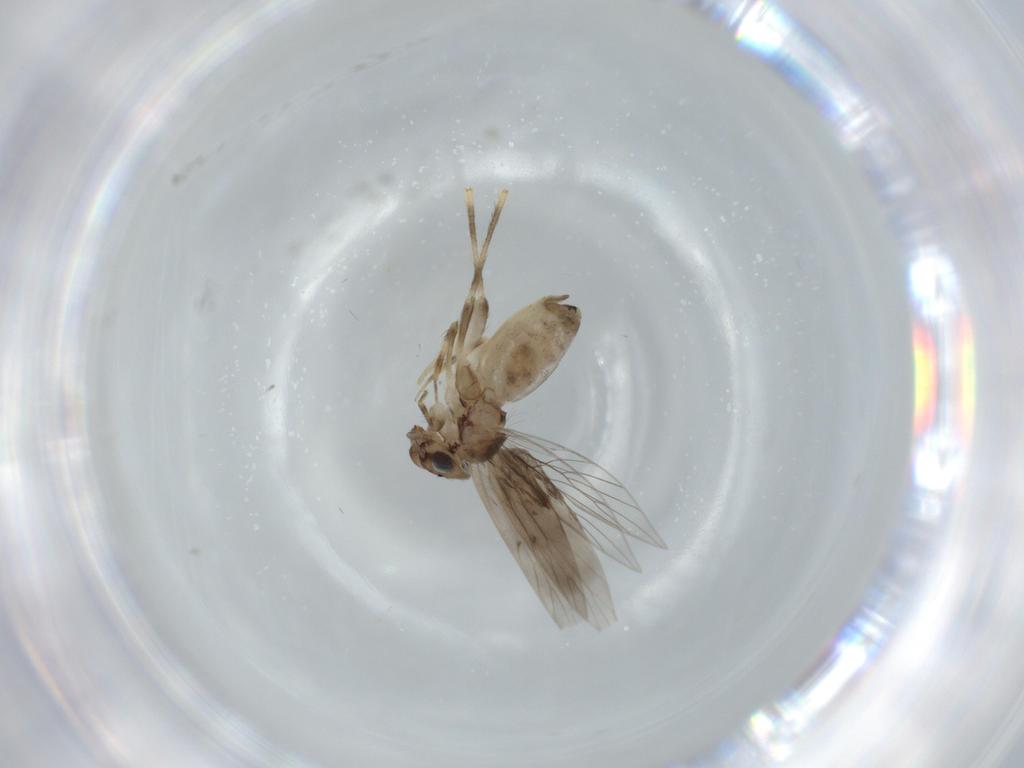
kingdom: Animalia
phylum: Arthropoda
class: Insecta
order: Psocodea
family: Lepidopsocidae
